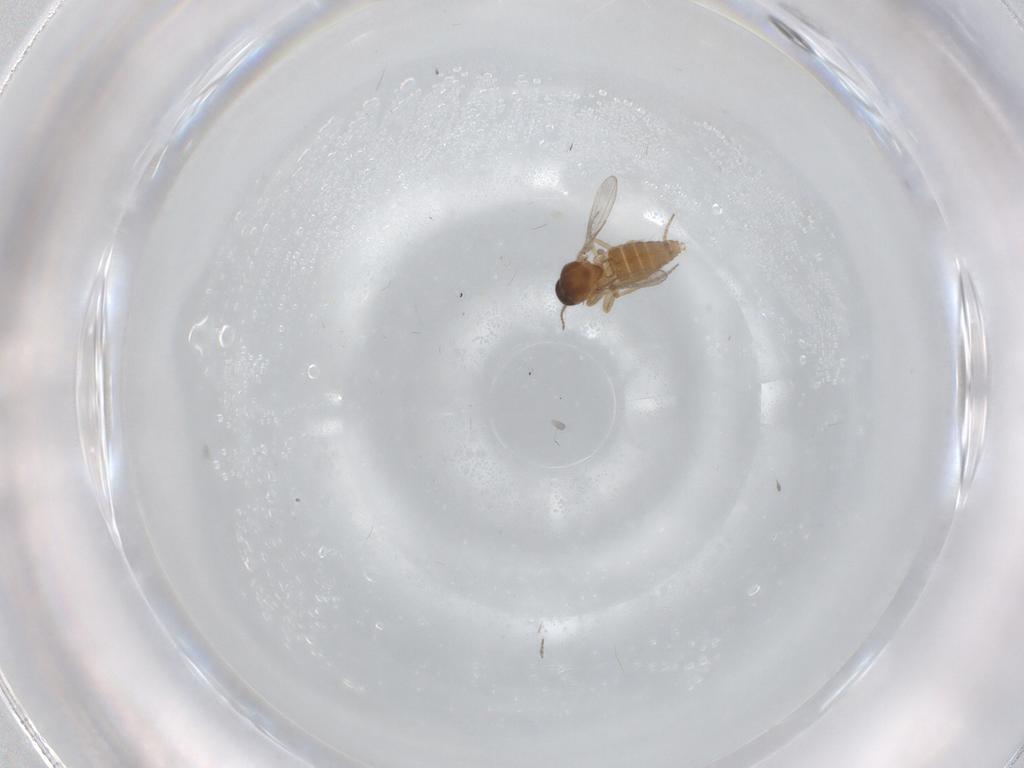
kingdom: Animalia
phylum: Arthropoda
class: Insecta
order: Diptera
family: Ceratopogonidae
